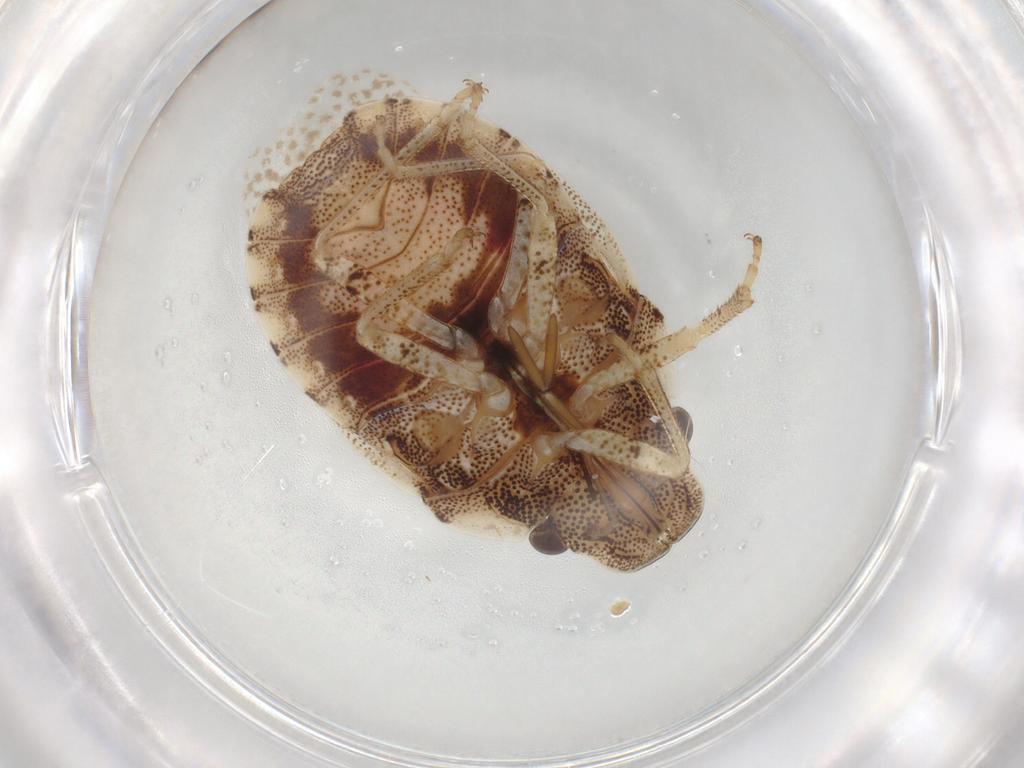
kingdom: Animalia
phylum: Arthropoda
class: Insecta
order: Hemiptera
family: Pentatomidae
